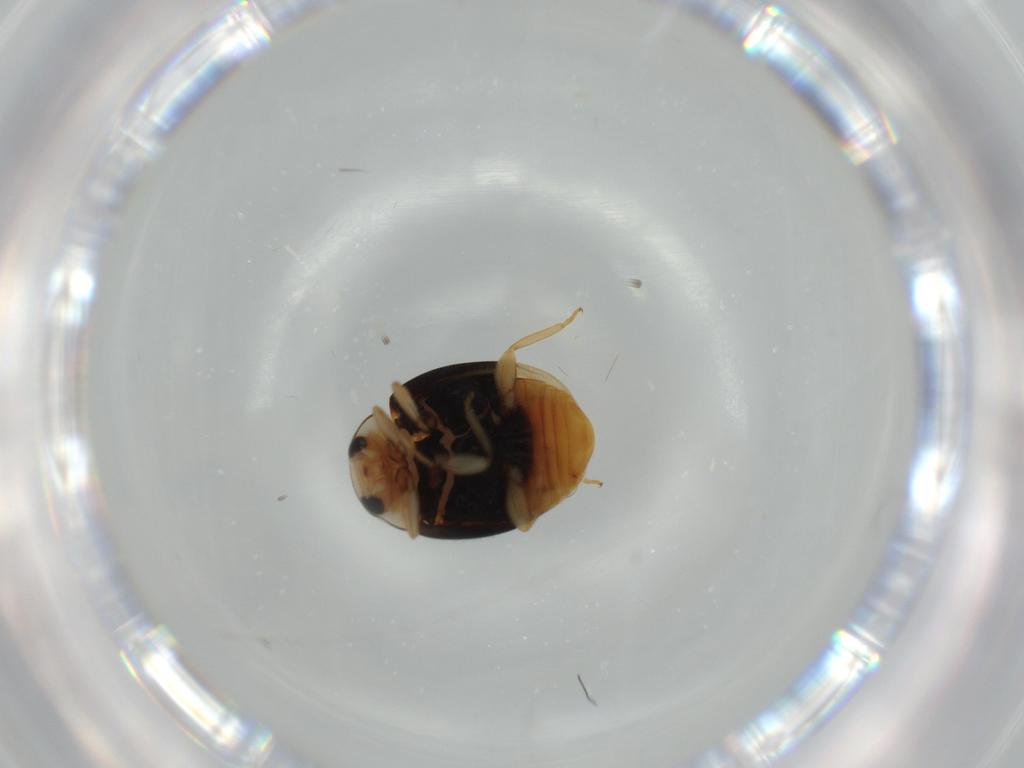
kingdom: Animalia
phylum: Arthropoda
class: Insecta
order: Coleoptera
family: Coccinellidae
